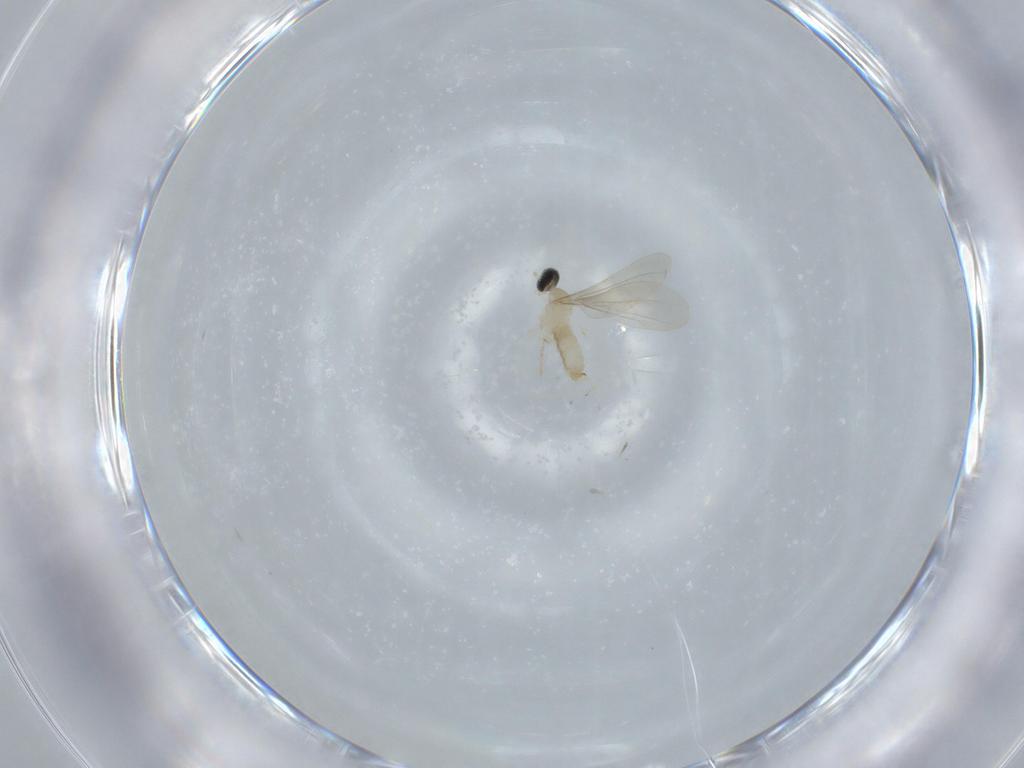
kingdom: Animalia
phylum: Arthropoda
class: Insecta
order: Diptera
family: Cecidomyiidae
